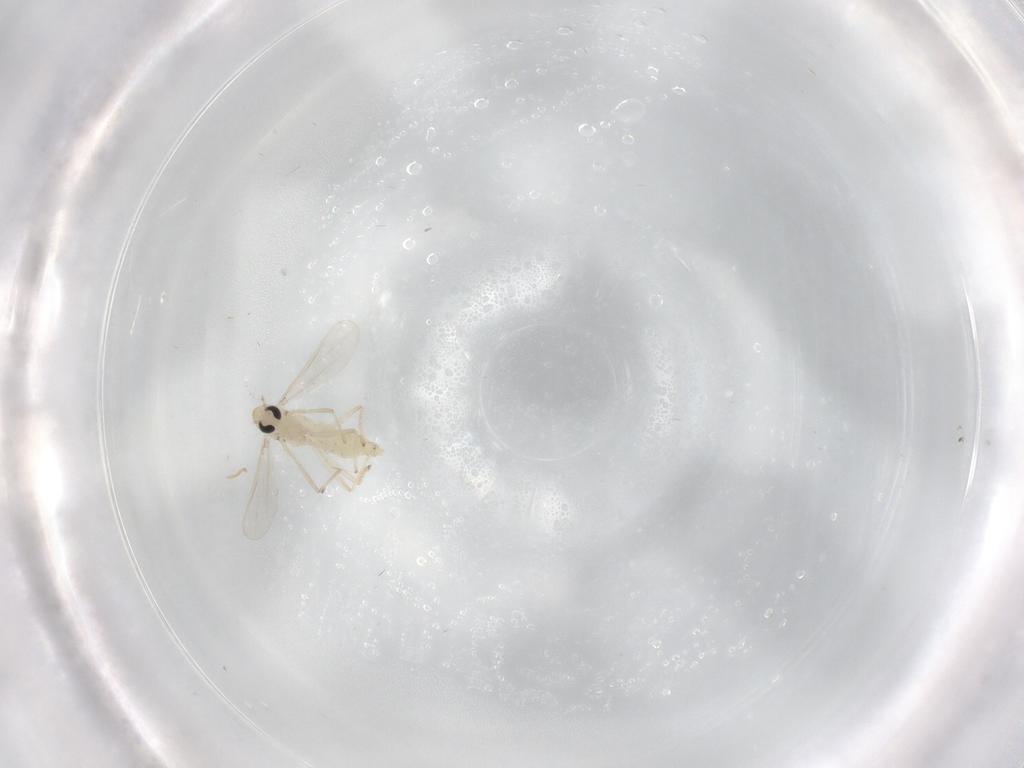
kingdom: Animalia
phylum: Arthropoda
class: Insecta
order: Diptera
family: Chironomidae
